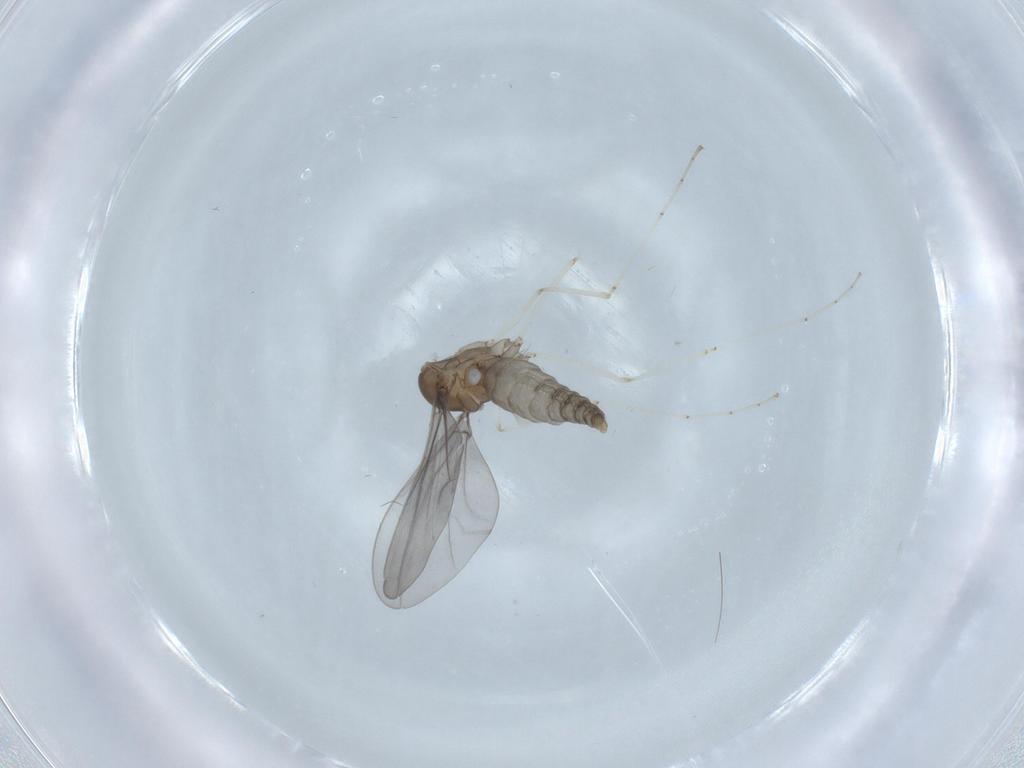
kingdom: Animalia
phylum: Arthropoda
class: Insecta
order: Diptera
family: Cecidomyiidae
